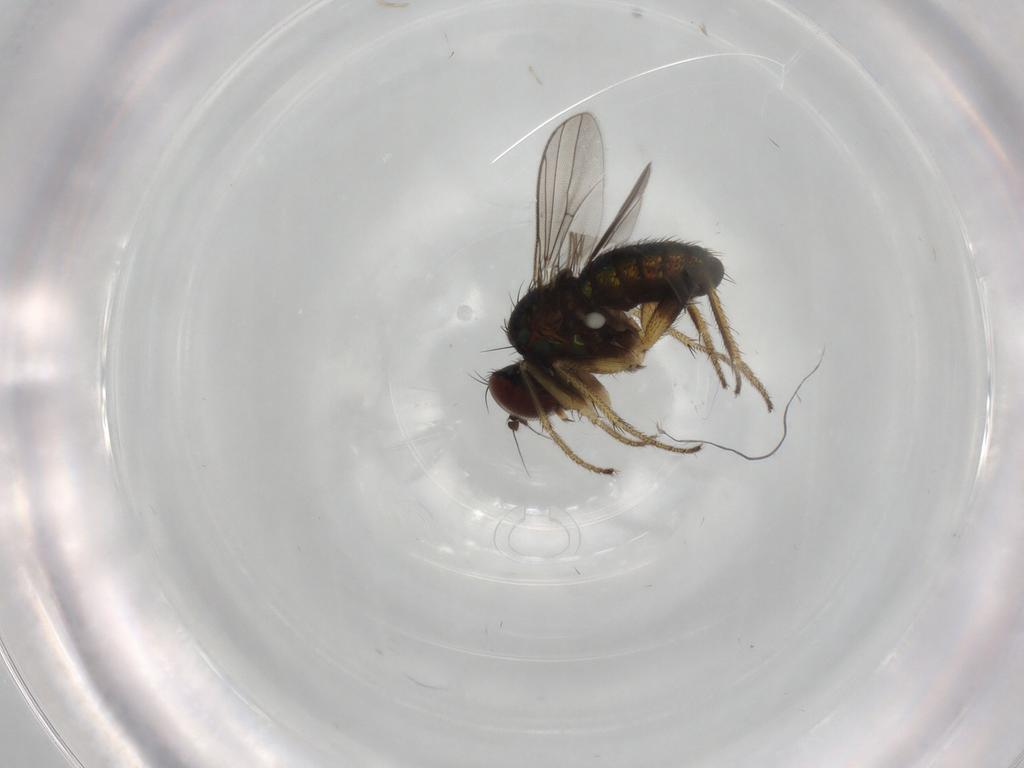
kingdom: Animalia
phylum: Arthropoda
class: Insecta
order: Diptera
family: Dolichopodidae
